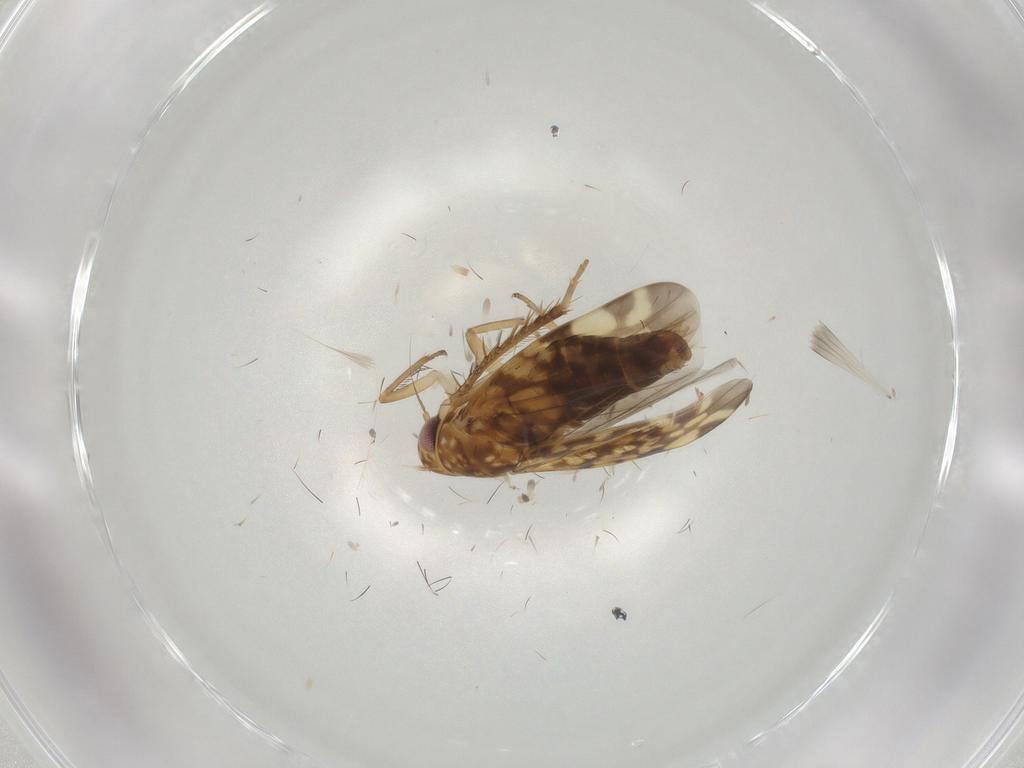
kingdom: Animalia
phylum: Arthropoda
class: Insecta
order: Hemiptera
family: Cicadellidae
